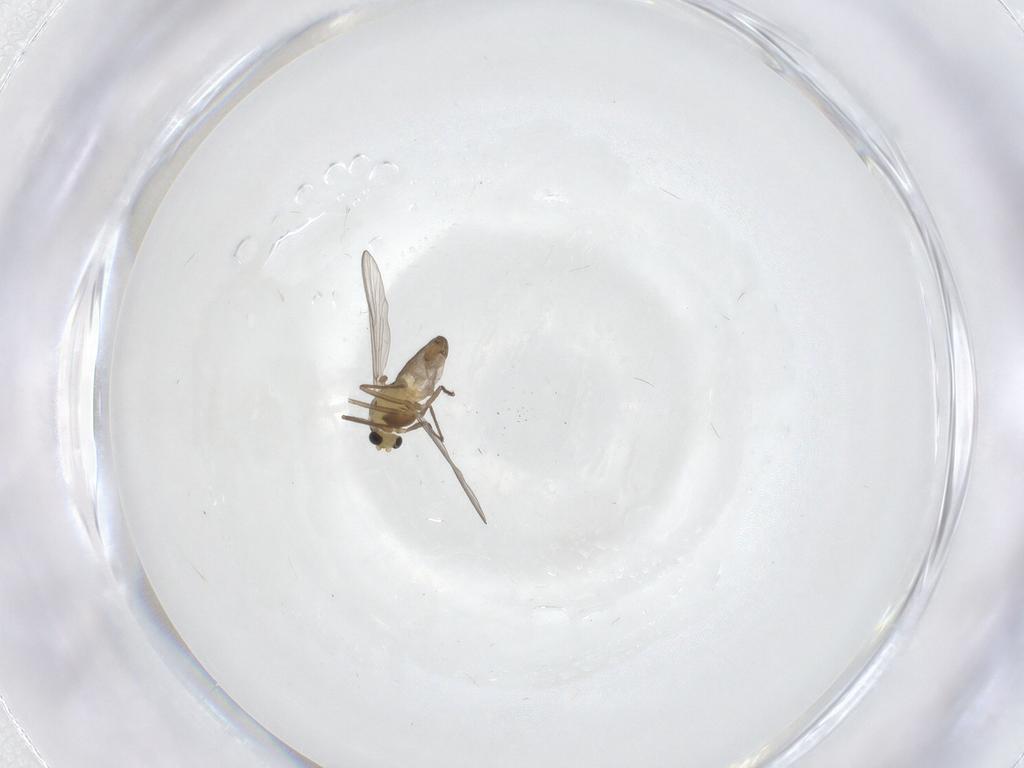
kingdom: Animalia
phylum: Arthropoda
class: Insecta
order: Diptera
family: Chironomidae
